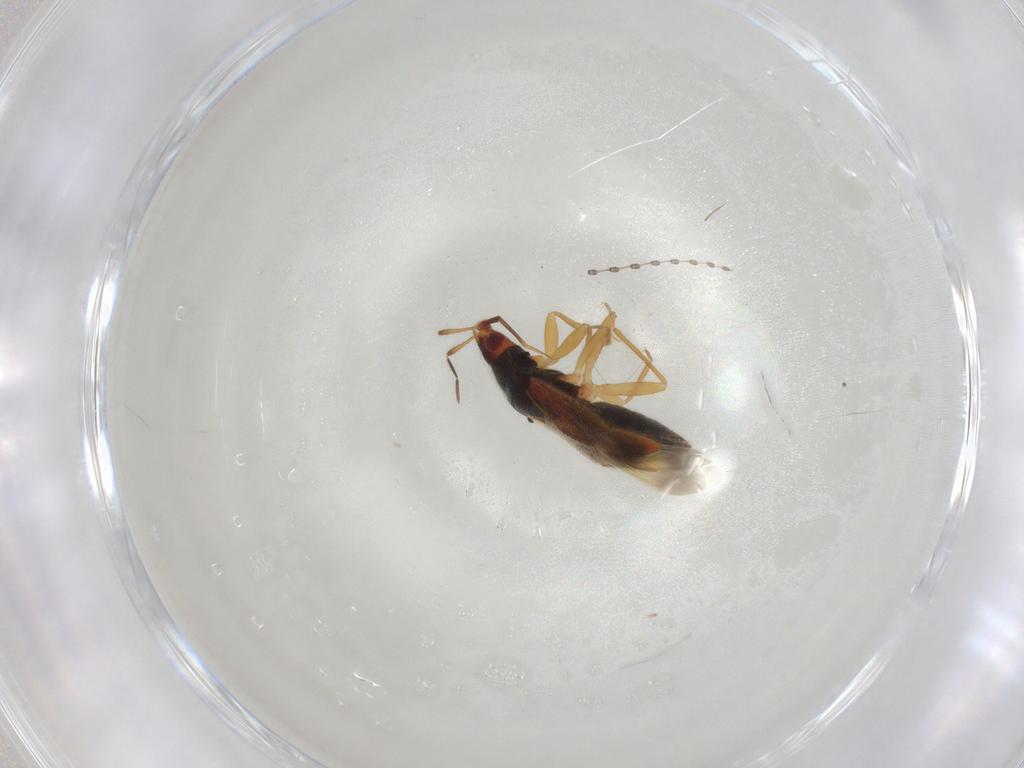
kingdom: Animalia
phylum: Arthropoda
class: Insecta
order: Hemiptera
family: Anthocoridae
